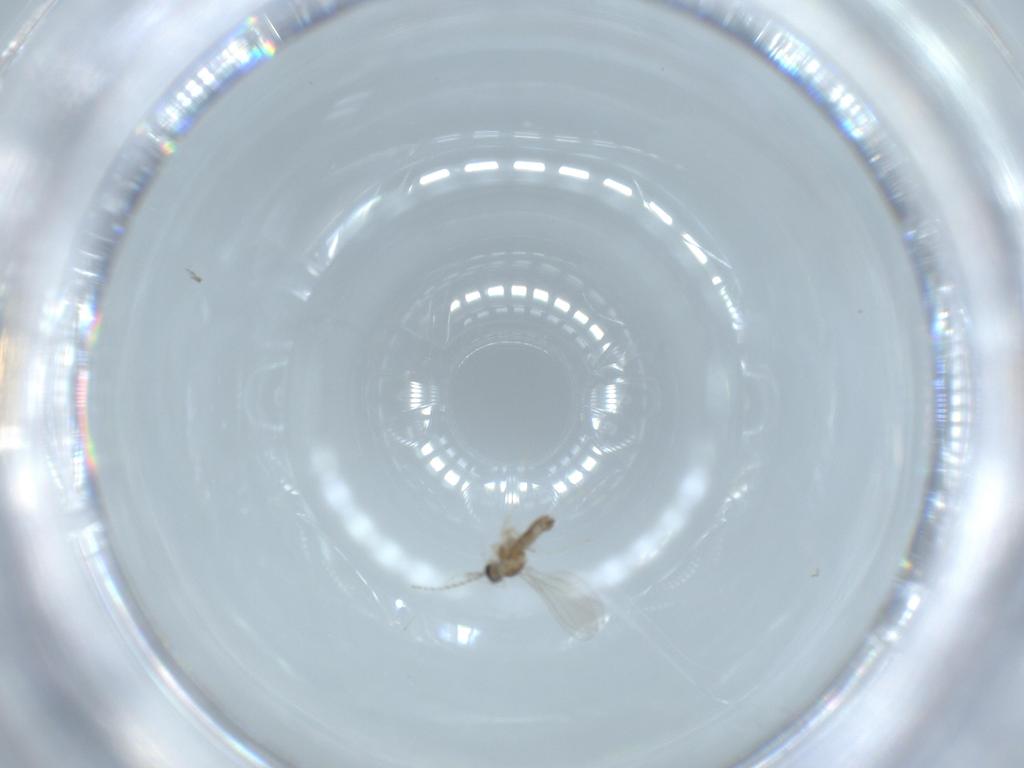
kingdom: Animalia
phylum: Arthropoda
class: Insecta
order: Diptera
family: Cecidomyiidae
